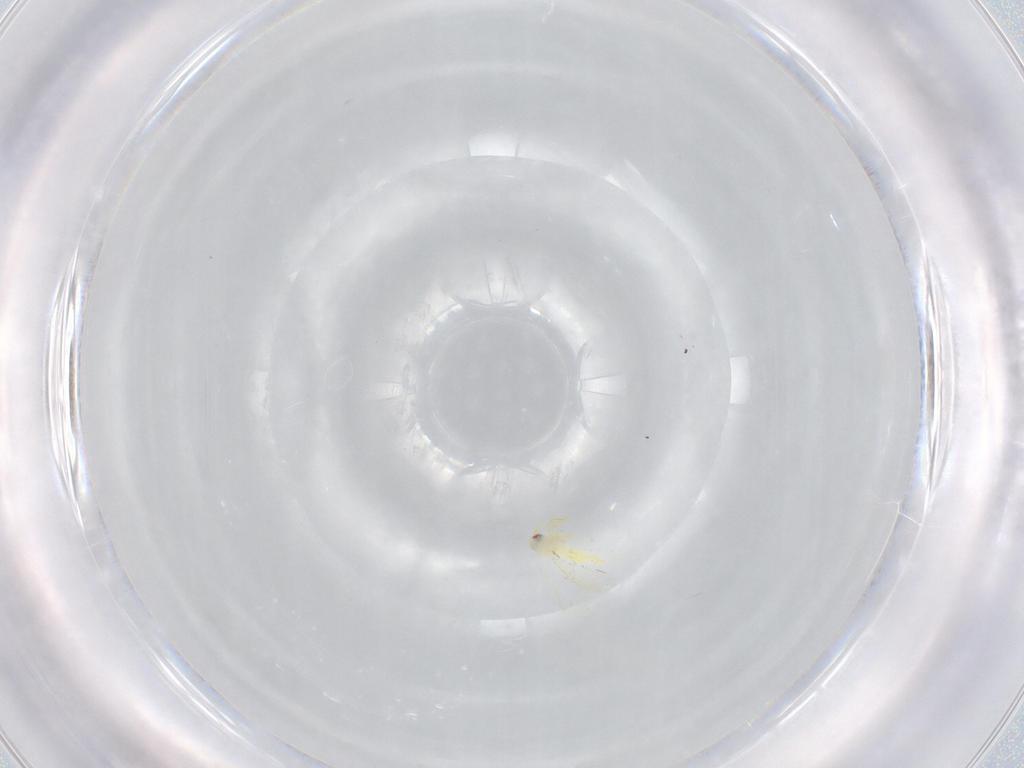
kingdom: Animalia
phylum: Arthropoda
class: Insecta
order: Hemiptera
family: Aleyrodidae
